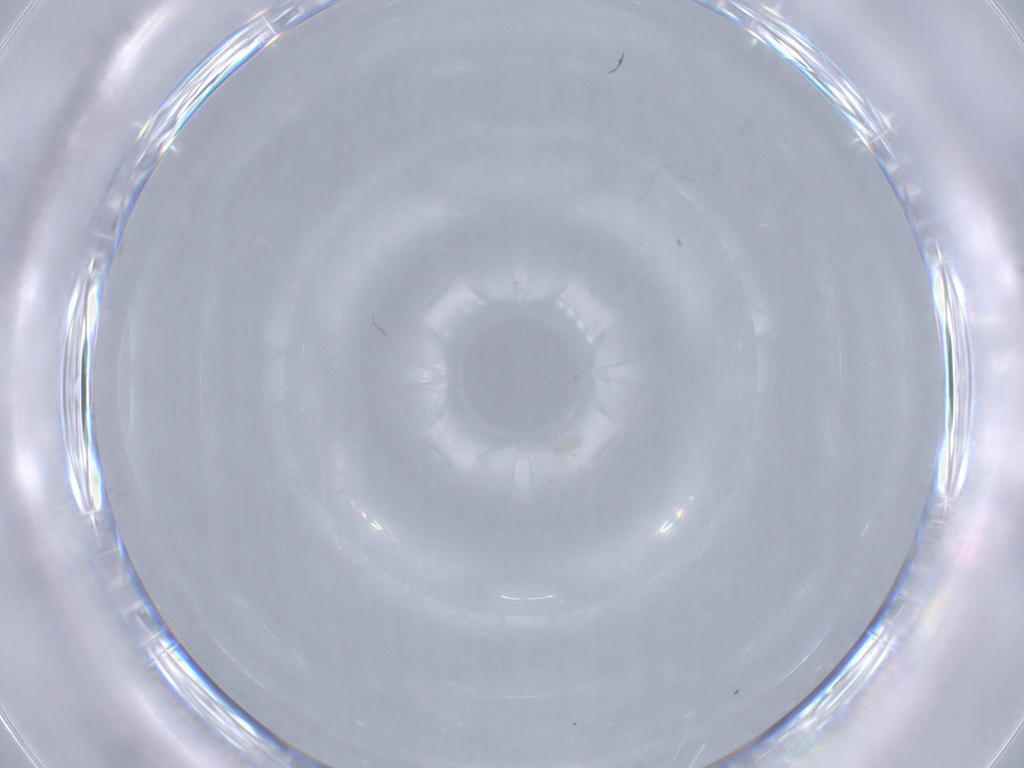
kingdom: Animalia
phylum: Arthropoda
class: Arachnida
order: Trombidiformes
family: Bdellidae
